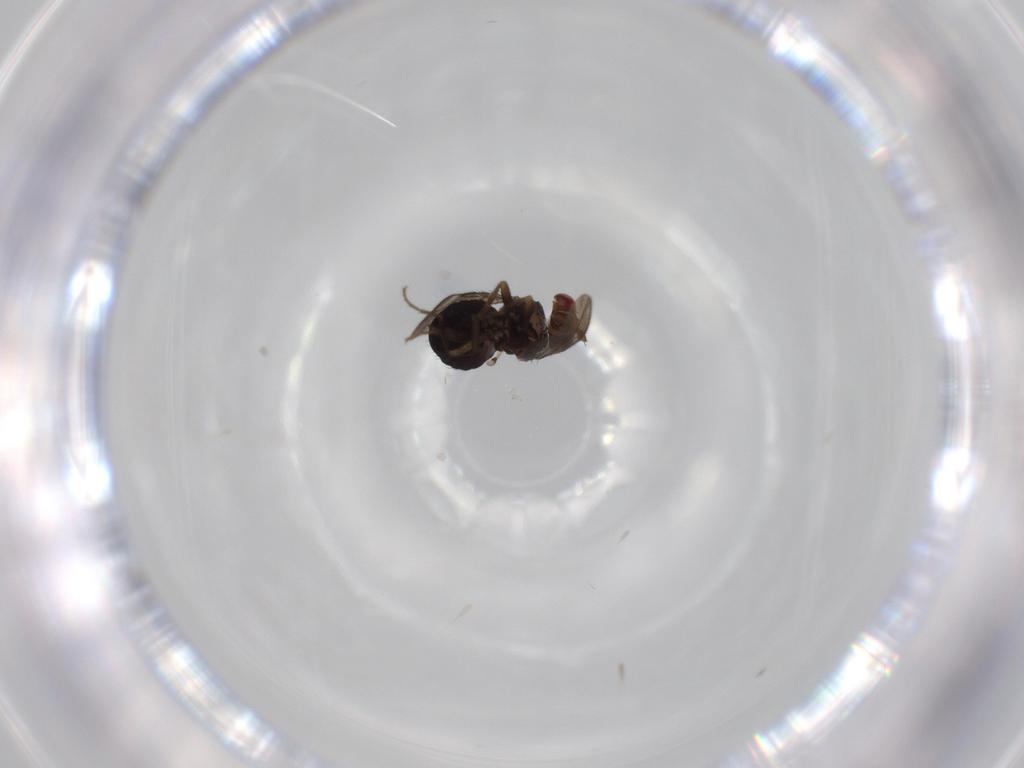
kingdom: Animalia
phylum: Arthropoda
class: Insecta
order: Diptera
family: Sphaeroceridae
